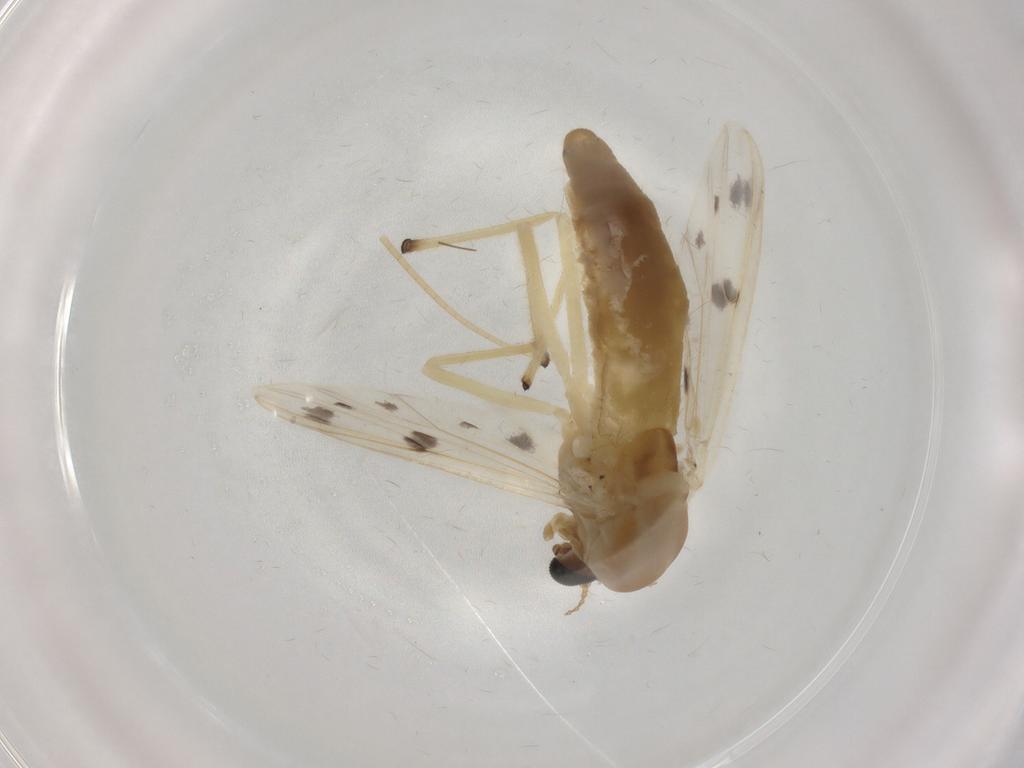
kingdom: Animalia
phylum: Arthropoda
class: Insecta
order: Diptera
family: Chironomidae
